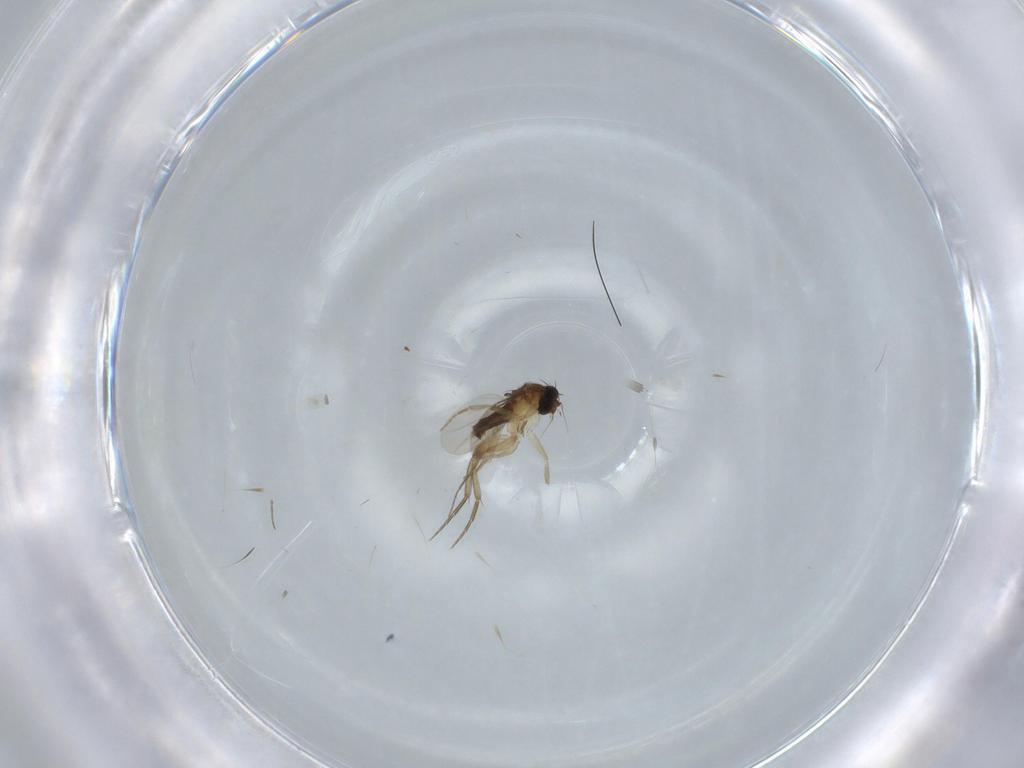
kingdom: Animalia
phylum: Arthropoda
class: Insecta
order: Diptera
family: Phoridae
